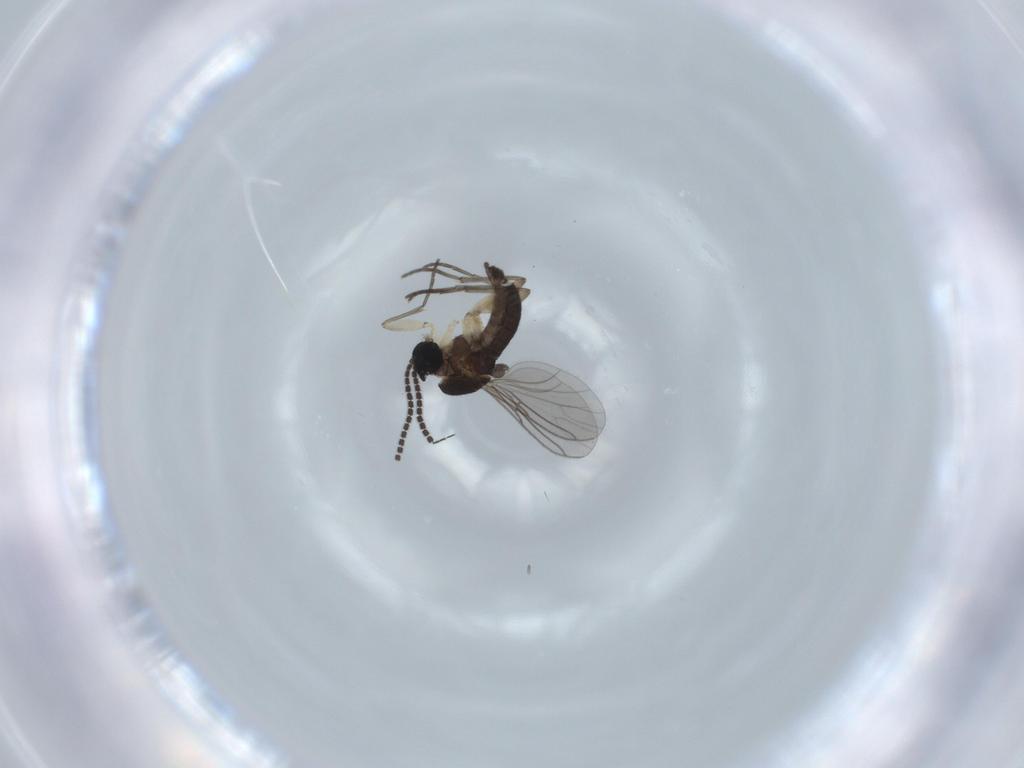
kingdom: Animalia
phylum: Arthropoda
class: Insecta
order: Diptera
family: Sciaridae
